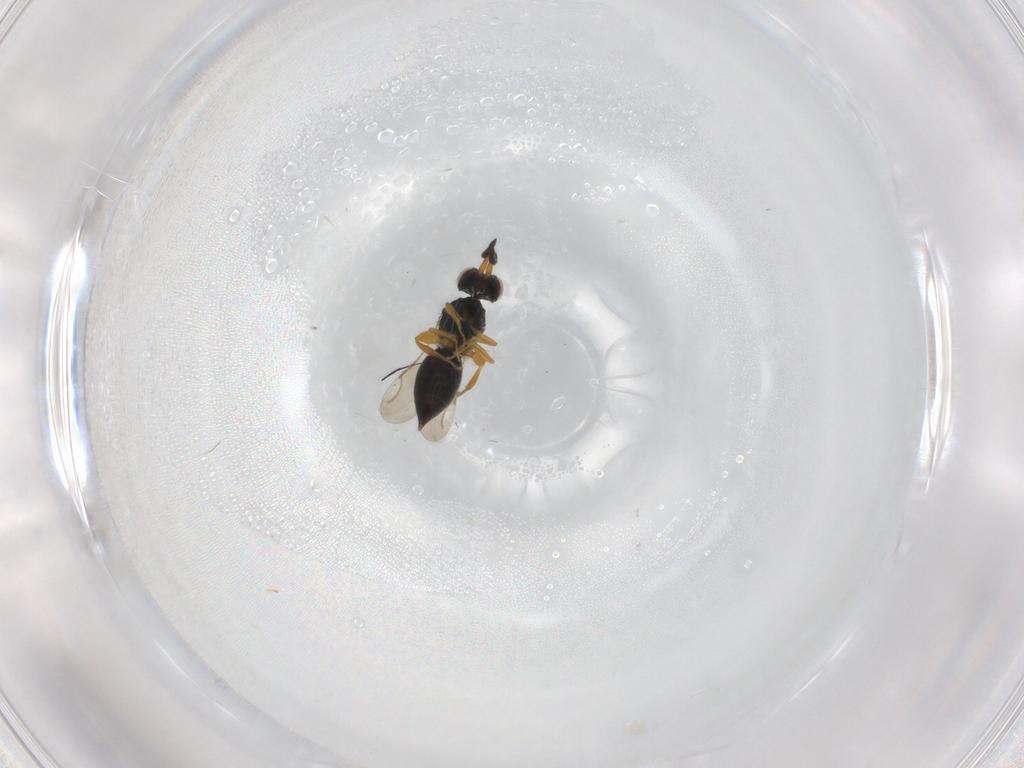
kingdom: Animalia
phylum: Arthropoda
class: Insecta
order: Hymenoptera
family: Ceraphronidae
